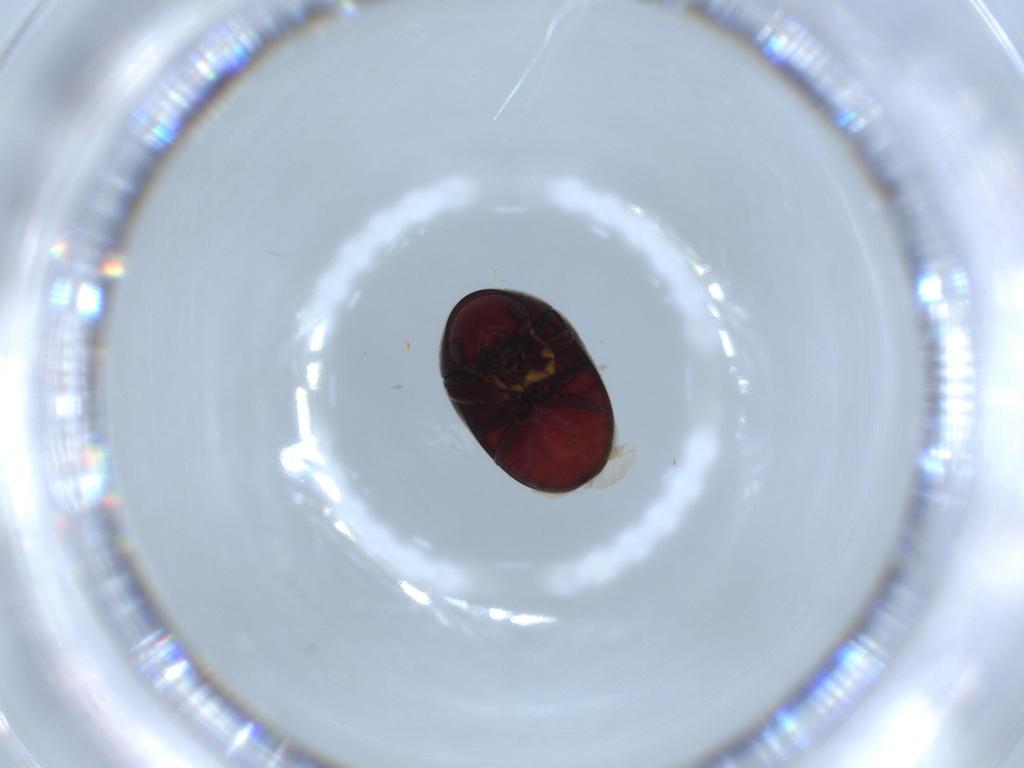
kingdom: Animalia
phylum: Arthropoda
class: Insecta
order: Coleoptera
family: Ptinidae
